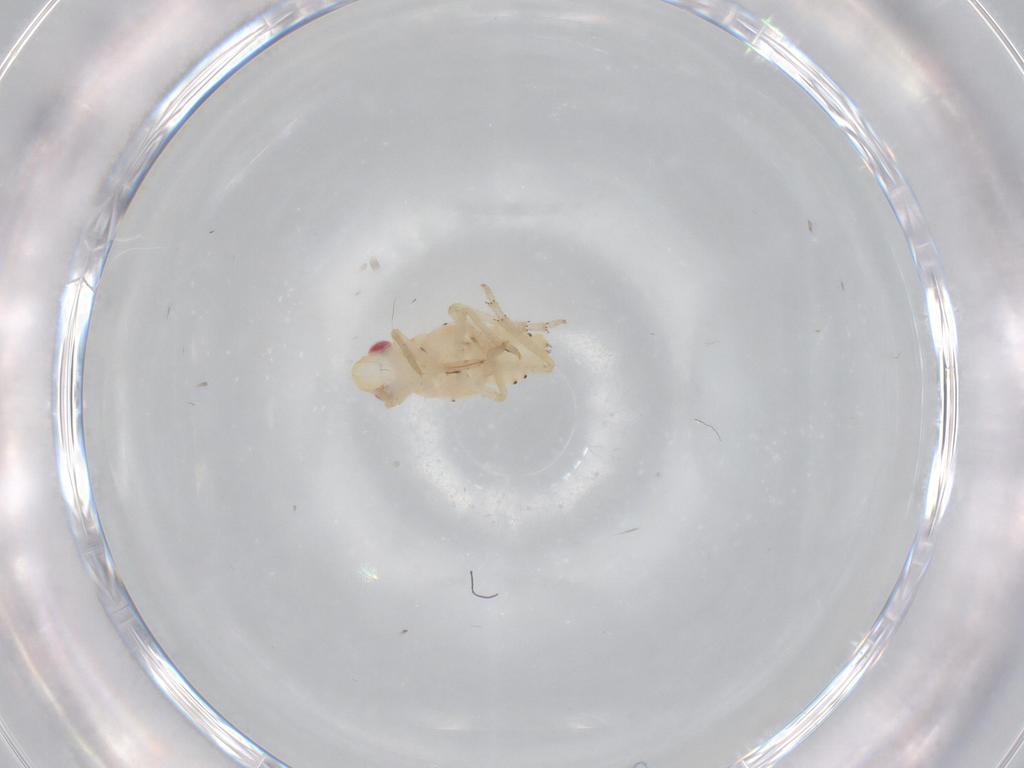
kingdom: Animalia
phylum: Arthropoda
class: Insecta
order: Hemiptera
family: Tropiduchidae
